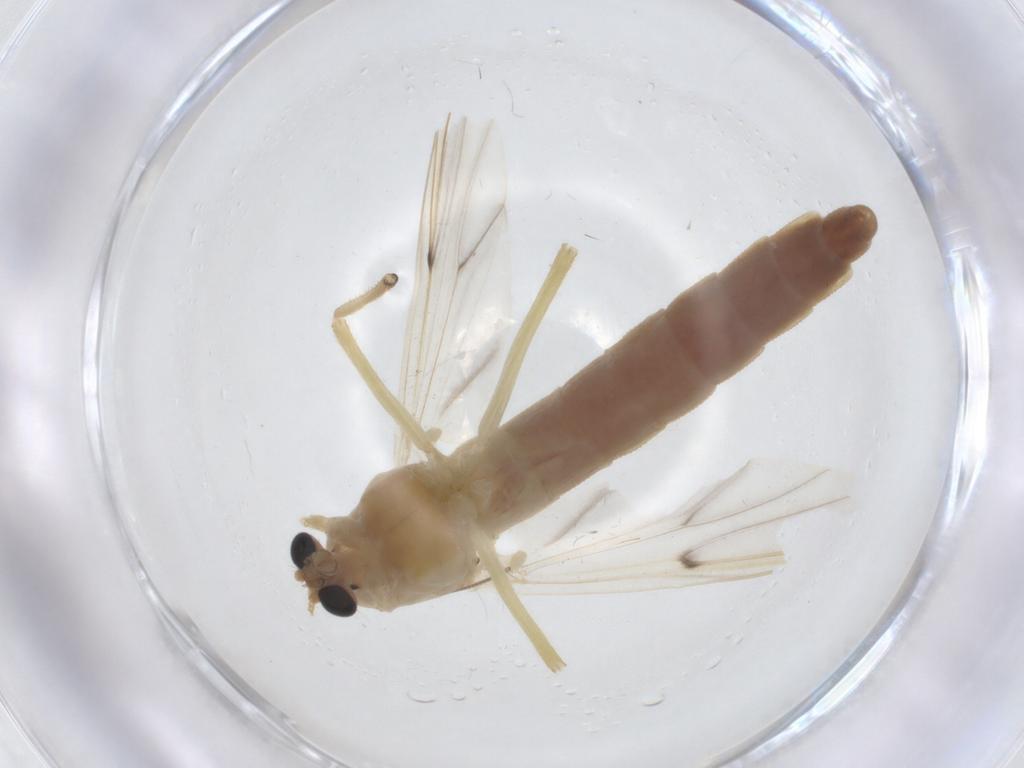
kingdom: Animalia
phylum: Arthropoda
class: Insecta
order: Diptera
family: Chironomidae
